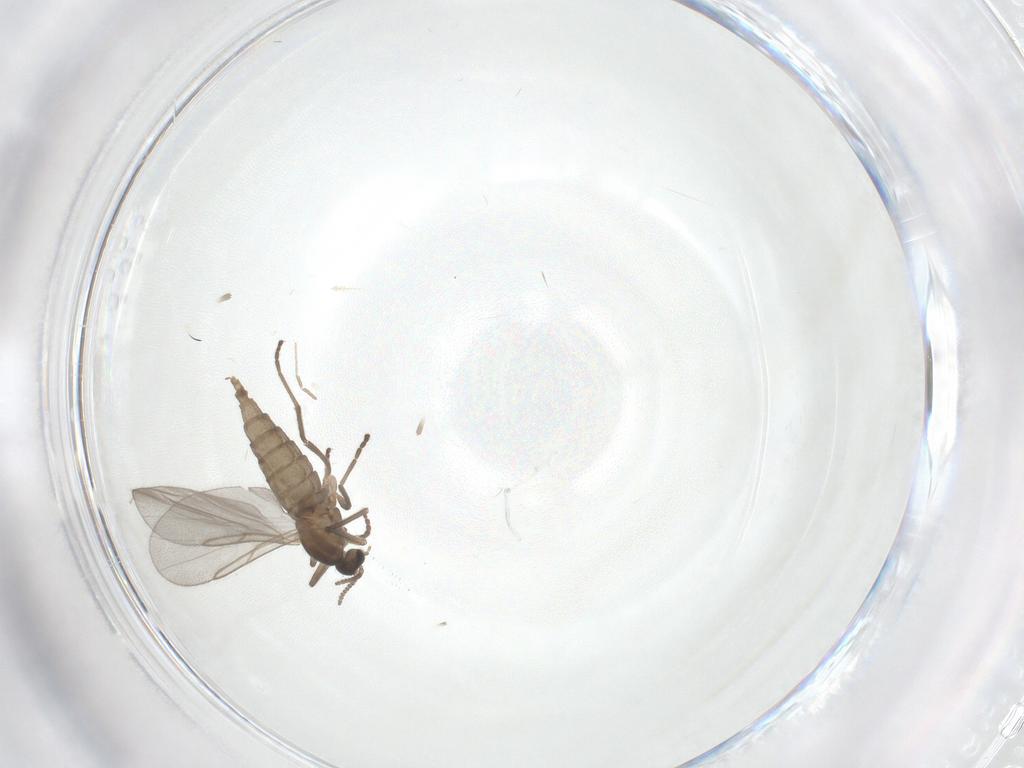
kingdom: Animalia
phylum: Arthropoda
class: Insecta
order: Diptera
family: Cecidomyiidae
